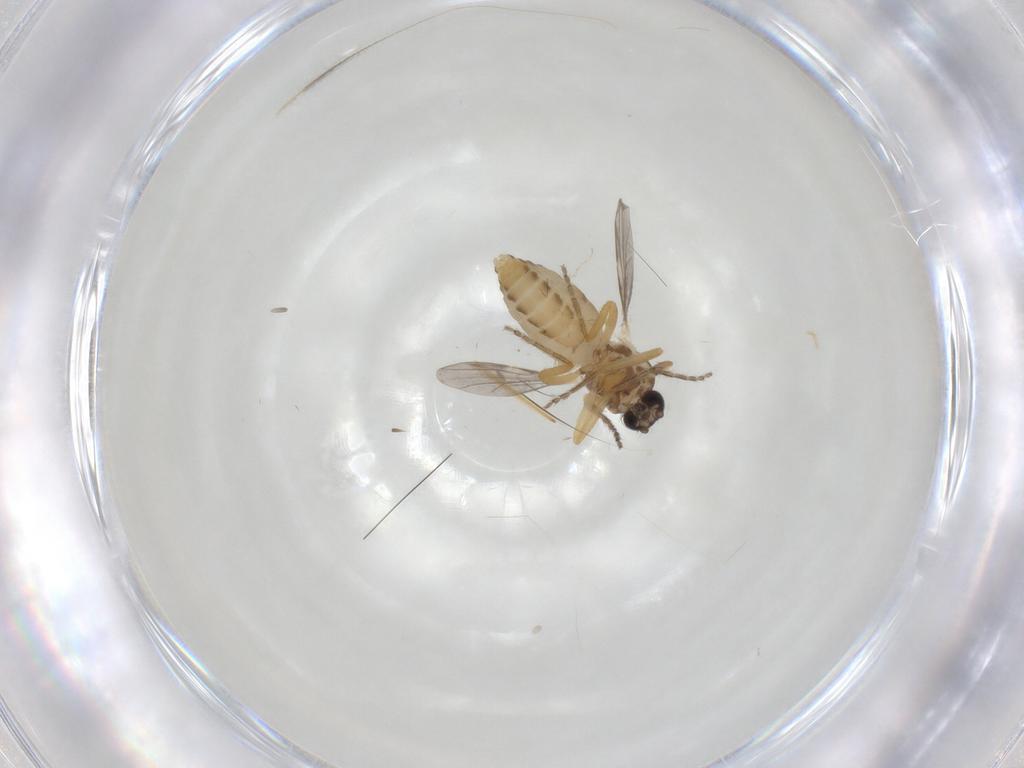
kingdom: Animalia
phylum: Arthropoda
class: Insecta
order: Diptera
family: Ceratopogonidae
